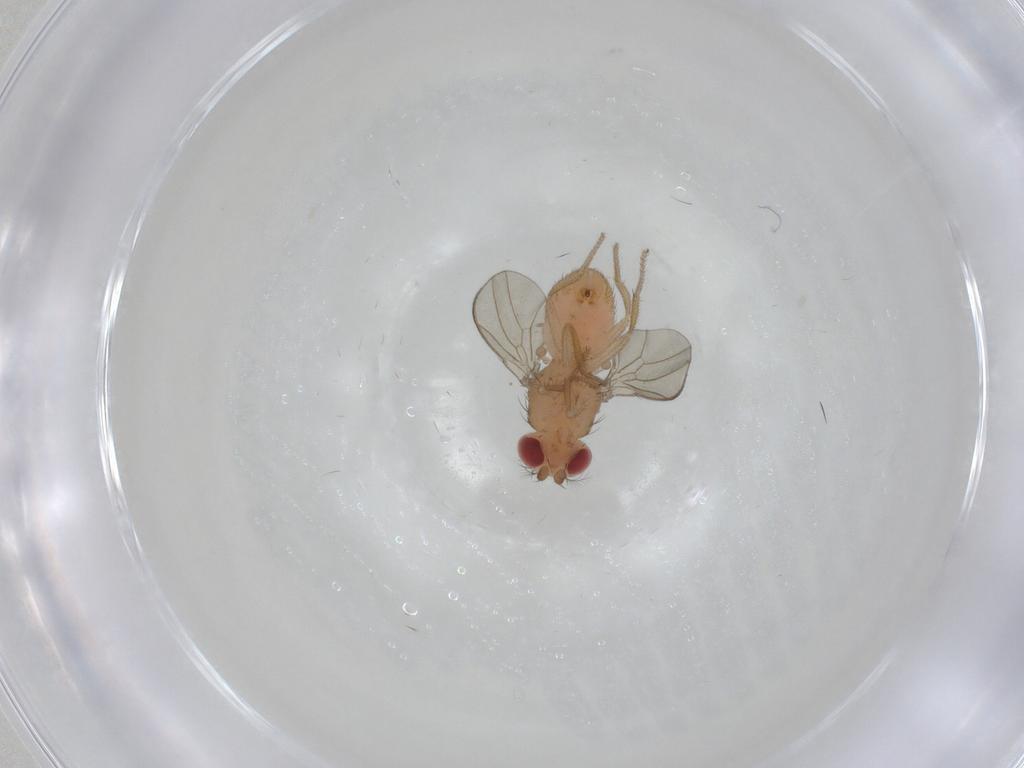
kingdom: Animalia
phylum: Arthropoda
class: Insecta
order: Diptera
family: Drosophilidae
